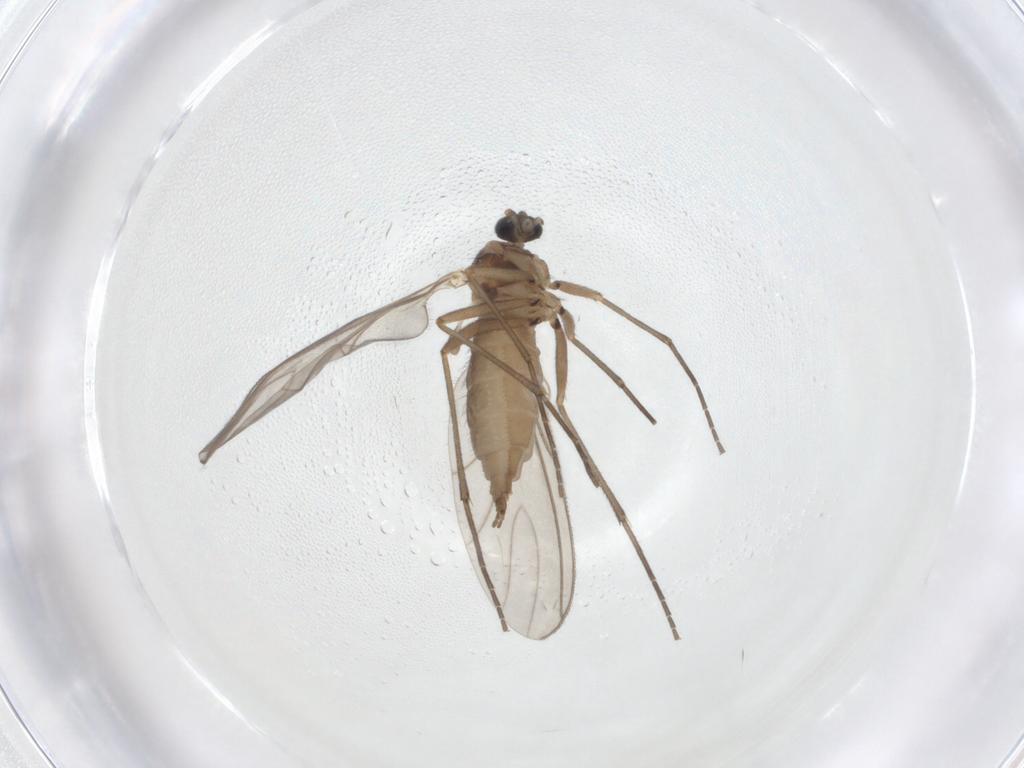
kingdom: Animalia
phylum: Arthropoda
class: Insecta
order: Diptera
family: Sciaridae
